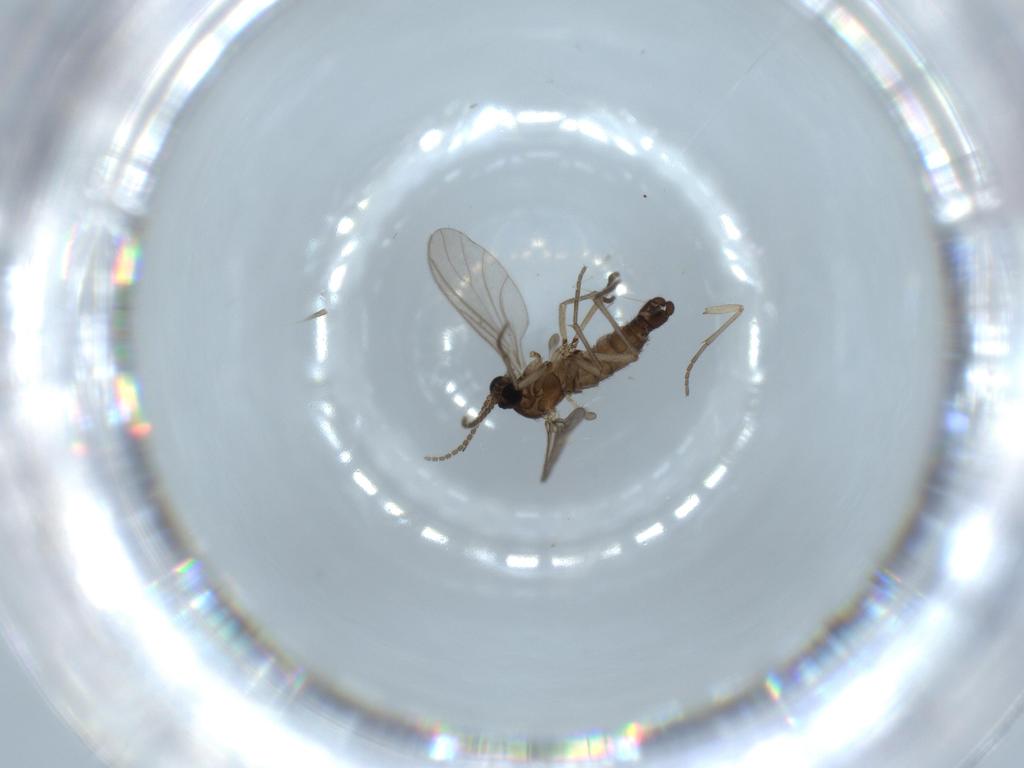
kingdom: Animalia
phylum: Arthropoda
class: Insecta
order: Diptera
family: Sciaridae
